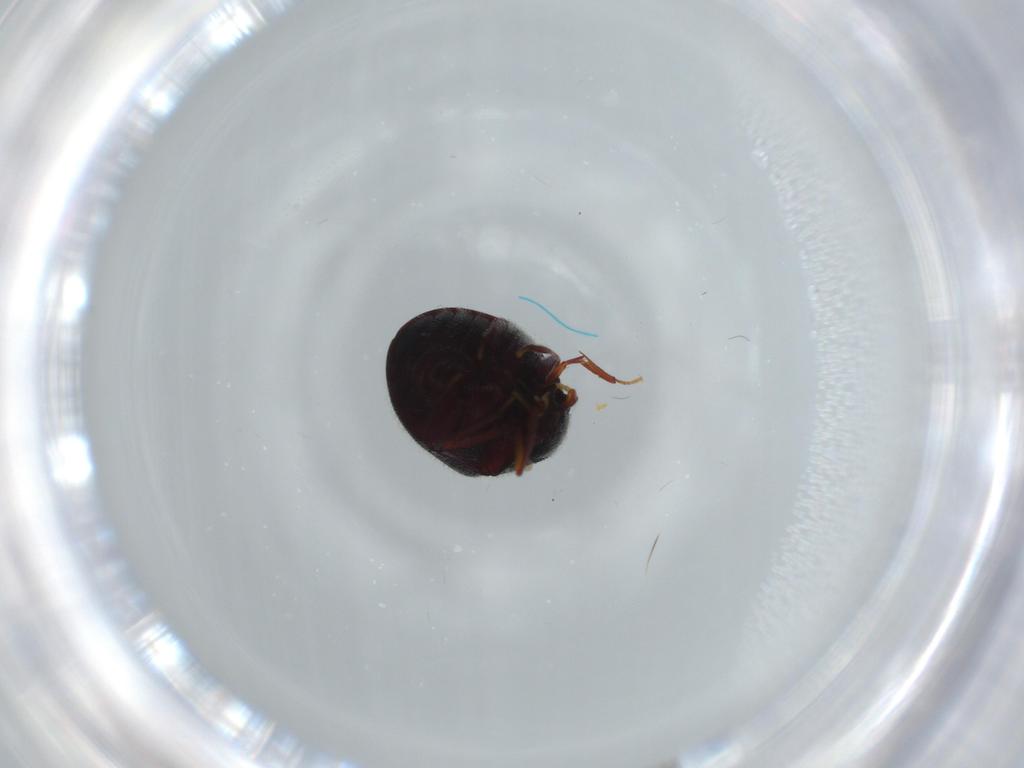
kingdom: Animalia
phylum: Arthropoda
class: Insecta
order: Coleoptera
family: Ptinidae
